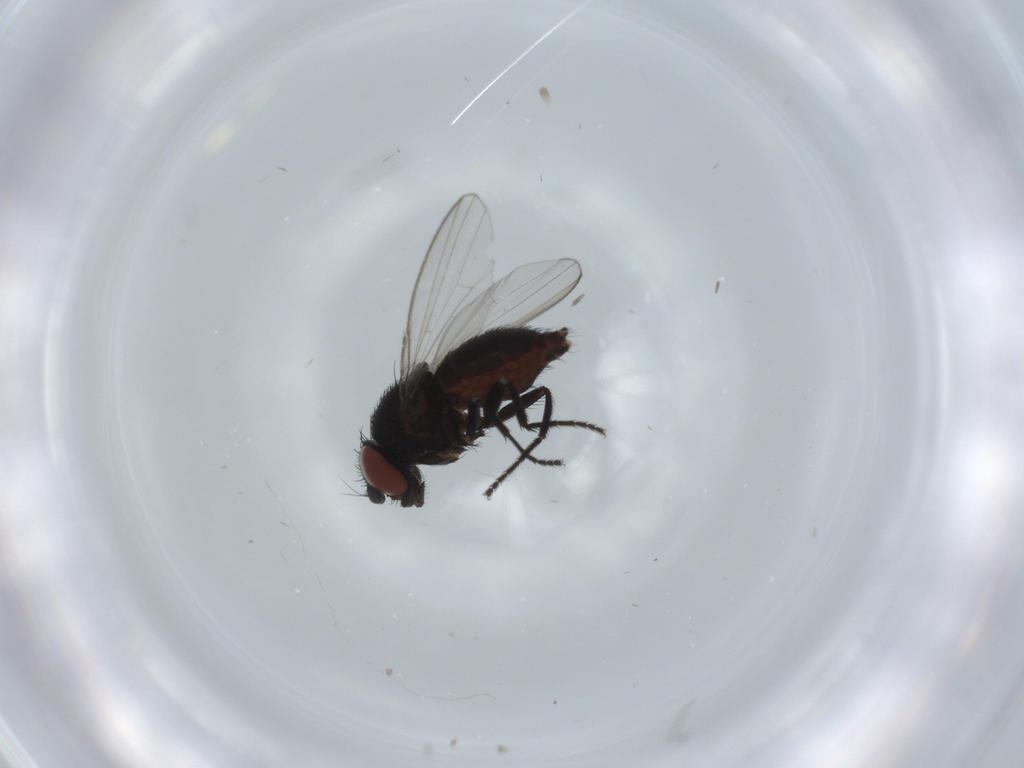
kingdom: Animalia
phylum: Arthropoda
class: Insecta
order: Diptera
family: Milichiidae
